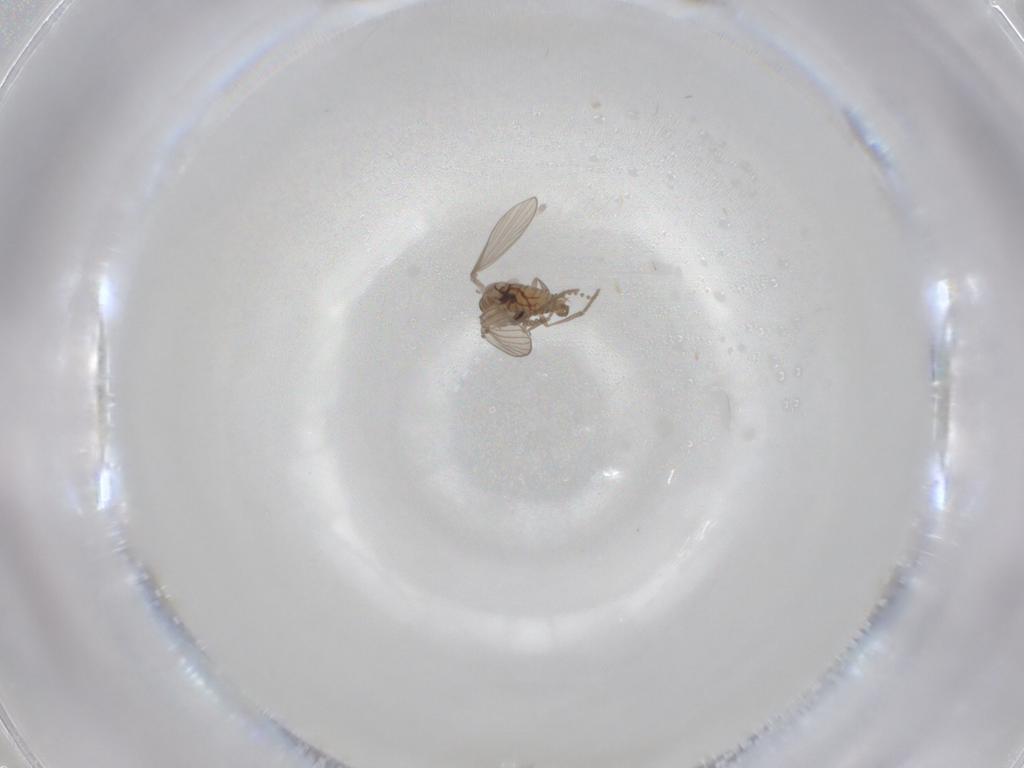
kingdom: Animalia
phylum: Arthropoda
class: Insecta
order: Diptera
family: Psychodidae
